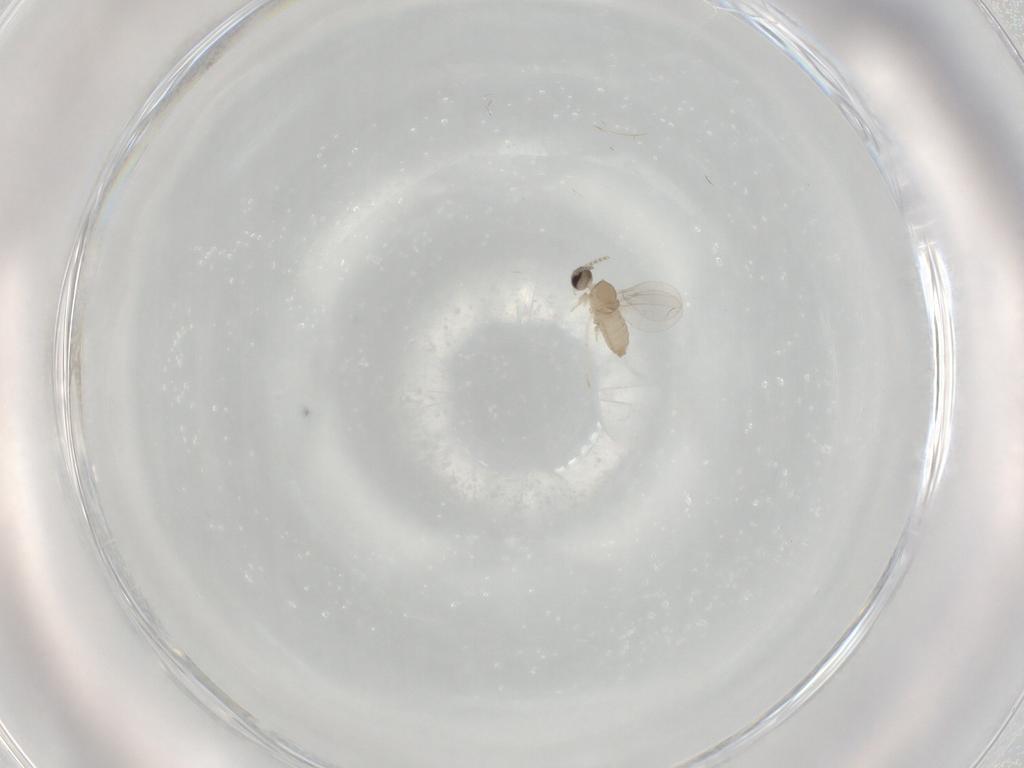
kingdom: Animalia
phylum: Arthropoda
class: Insecta
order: Diptera
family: Cecidomyiidae
